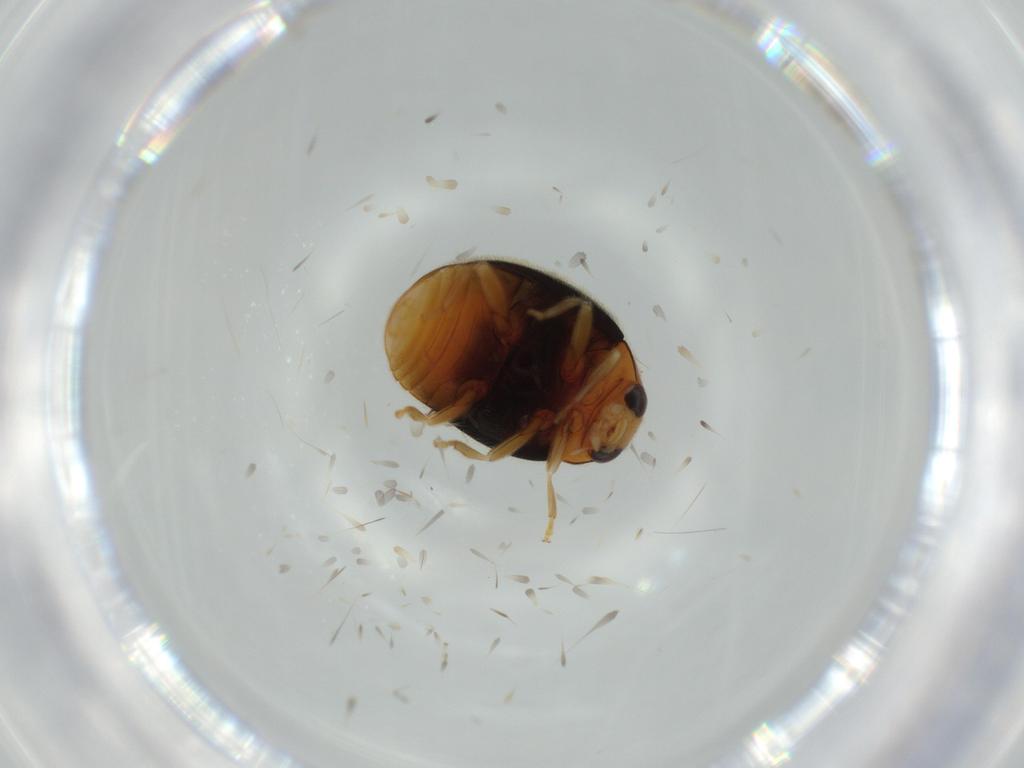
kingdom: Animalia
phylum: Arthropoda
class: Insecta
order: Coleoptera
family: Coccinellidae
